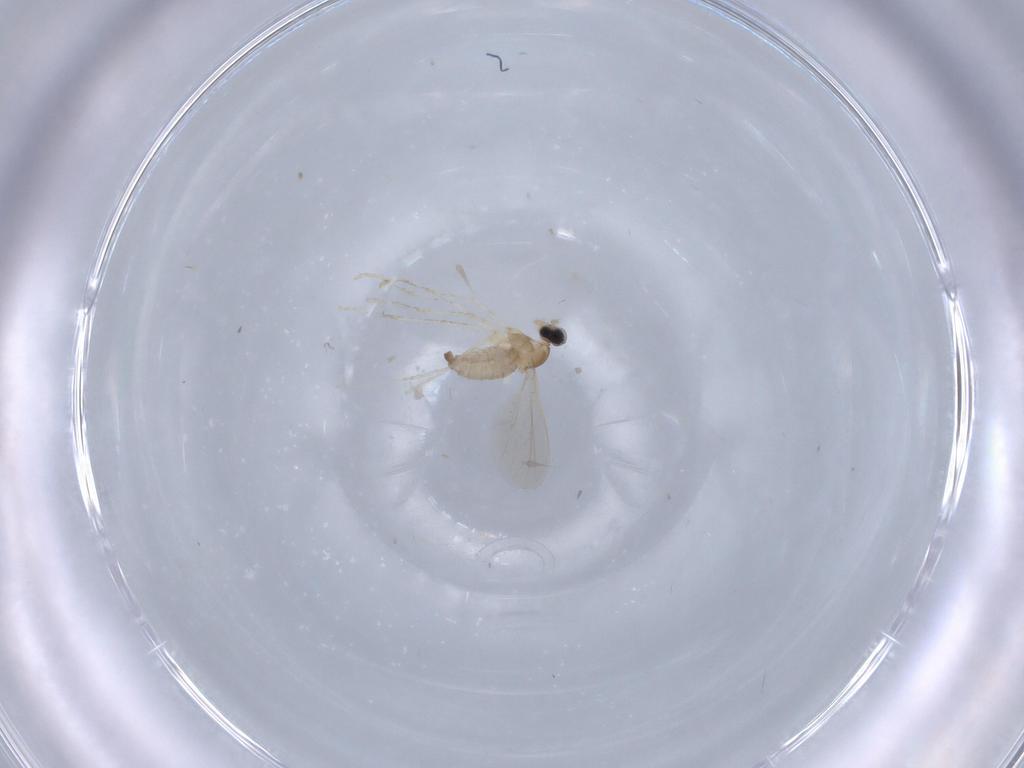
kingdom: Animalia
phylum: Arthropoda
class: Insecta
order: Diptera
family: Cecidomyiidae
